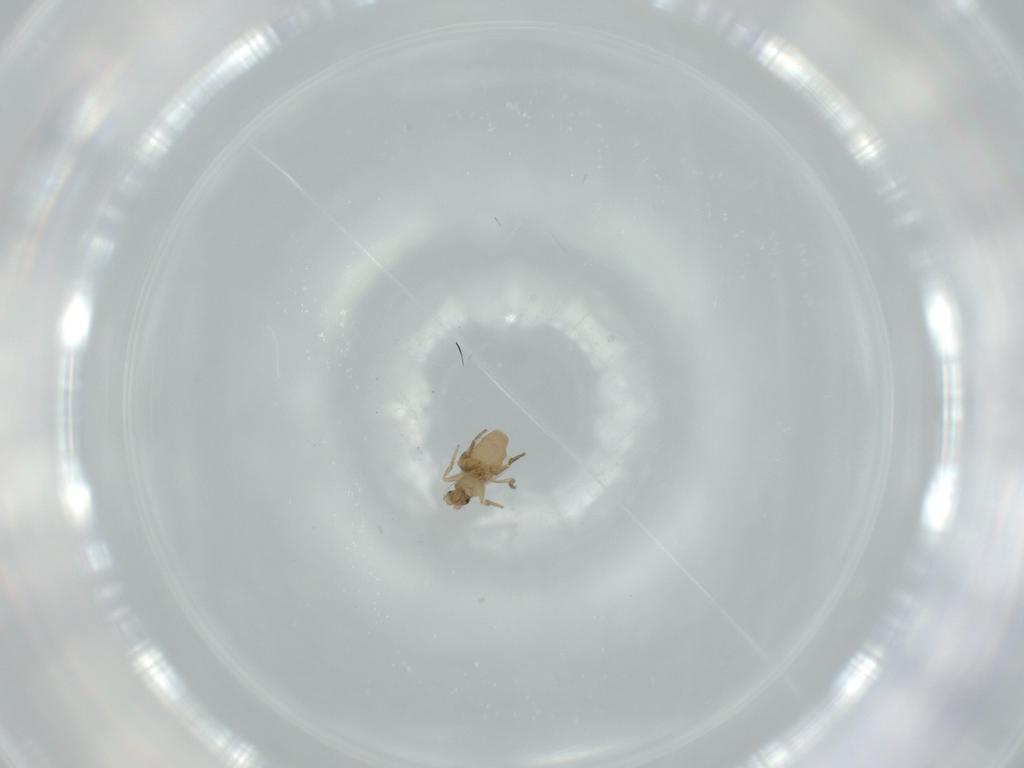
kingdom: Animalia
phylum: Arthropoda
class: Insecta
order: Diptera
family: Phoridae
